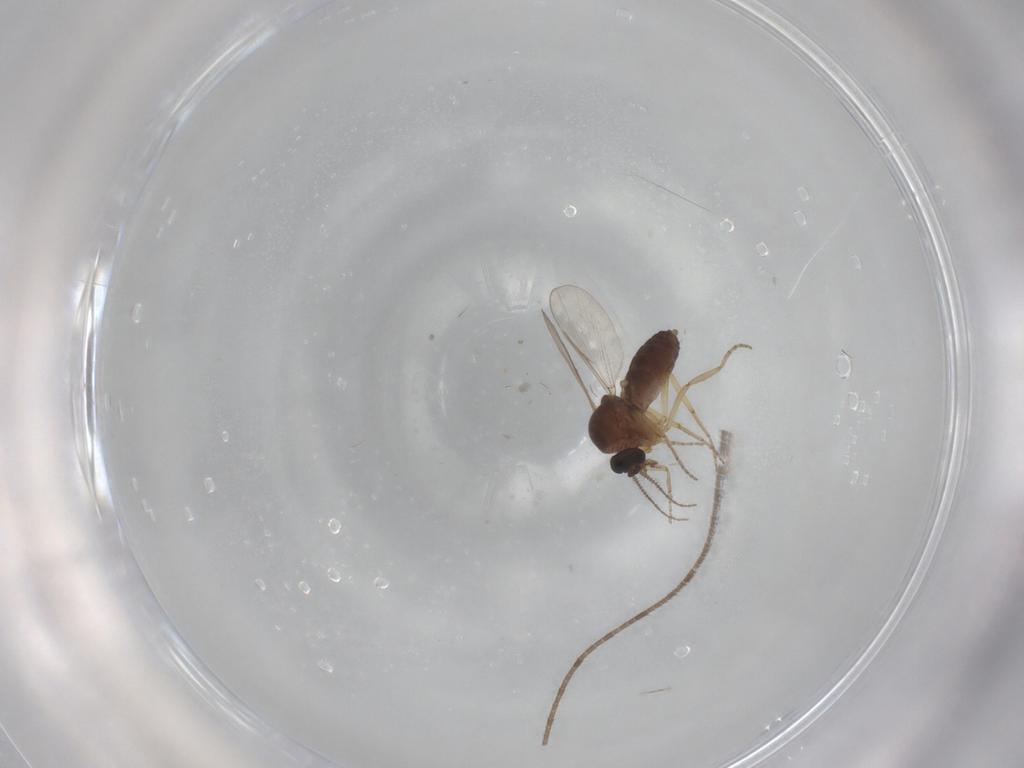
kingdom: Animalia
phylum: Arthropoda
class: Insecta
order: Diptera
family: Ceratopogonidae
